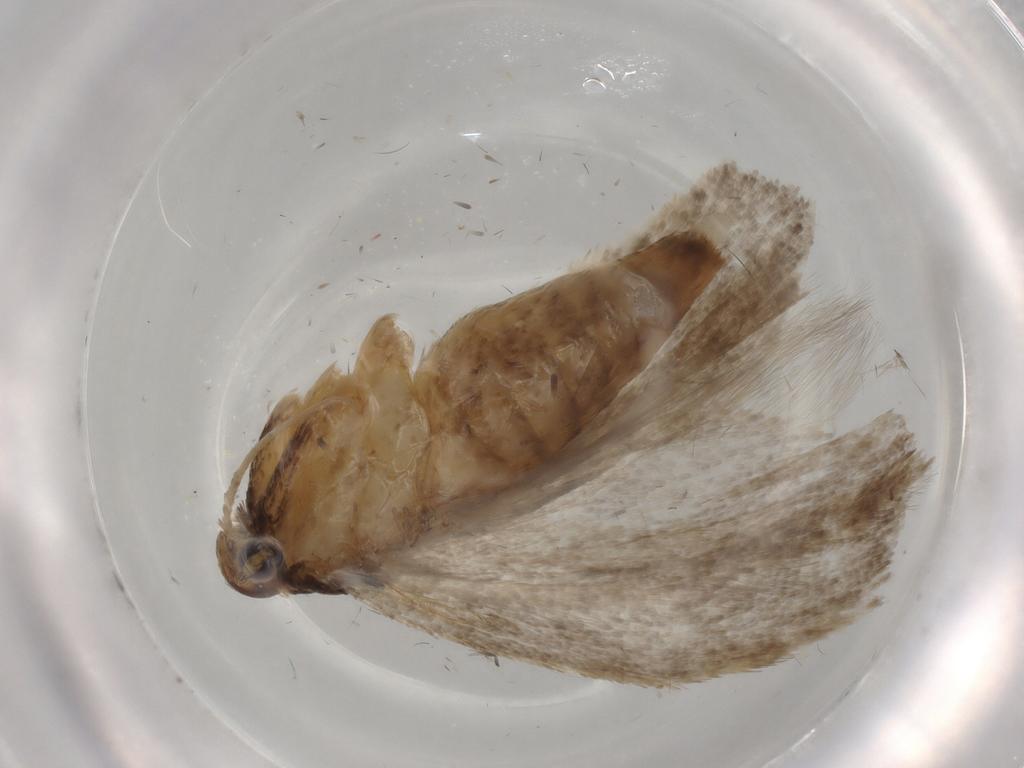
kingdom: Animalia
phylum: Arthropoda
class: Insecta
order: Lepidoptera
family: Gelechiidae
